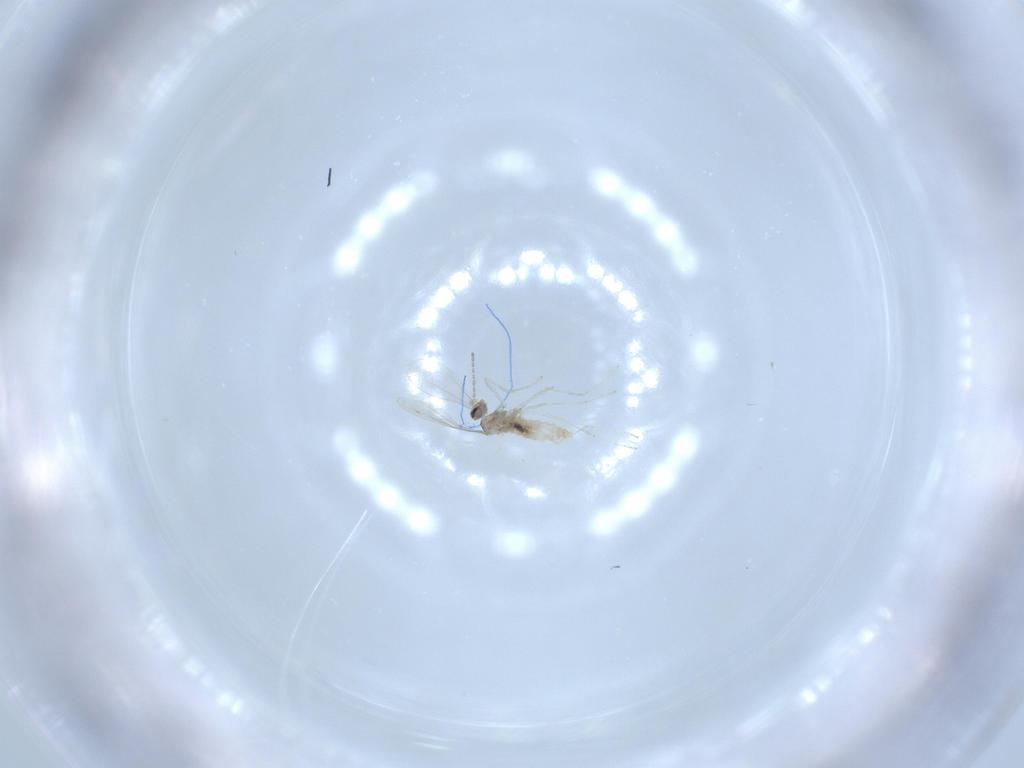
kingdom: Animalia
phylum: Arthropoda
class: Insecta
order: Diptera
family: Cecidomyiidae
